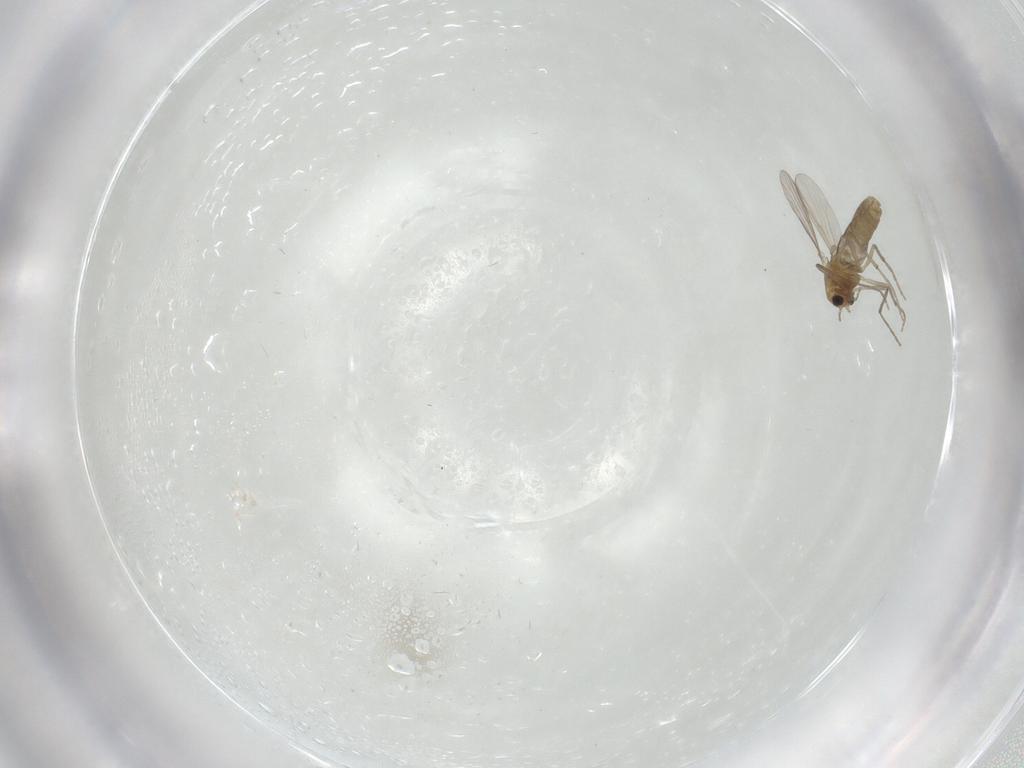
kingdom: Animalia
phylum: Arthropoda
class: Insecta
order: Diptera
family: Chironomidae
